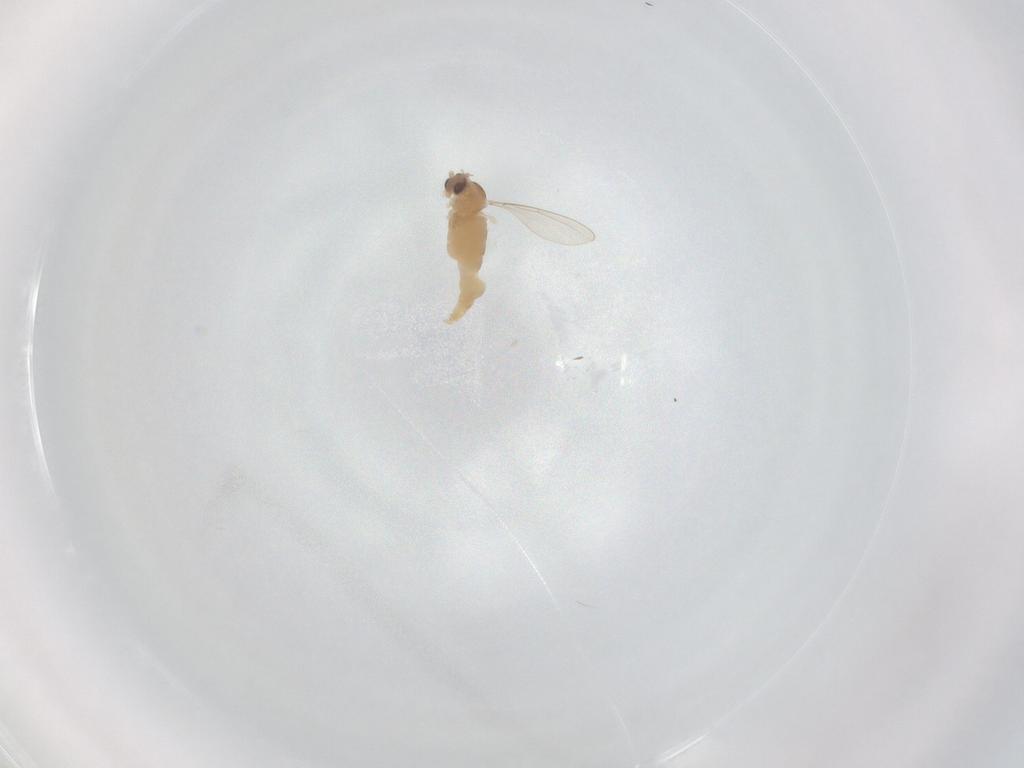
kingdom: Animalia
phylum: Arthropoda
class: Insecta
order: Diptera
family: Cecidomyiidae
